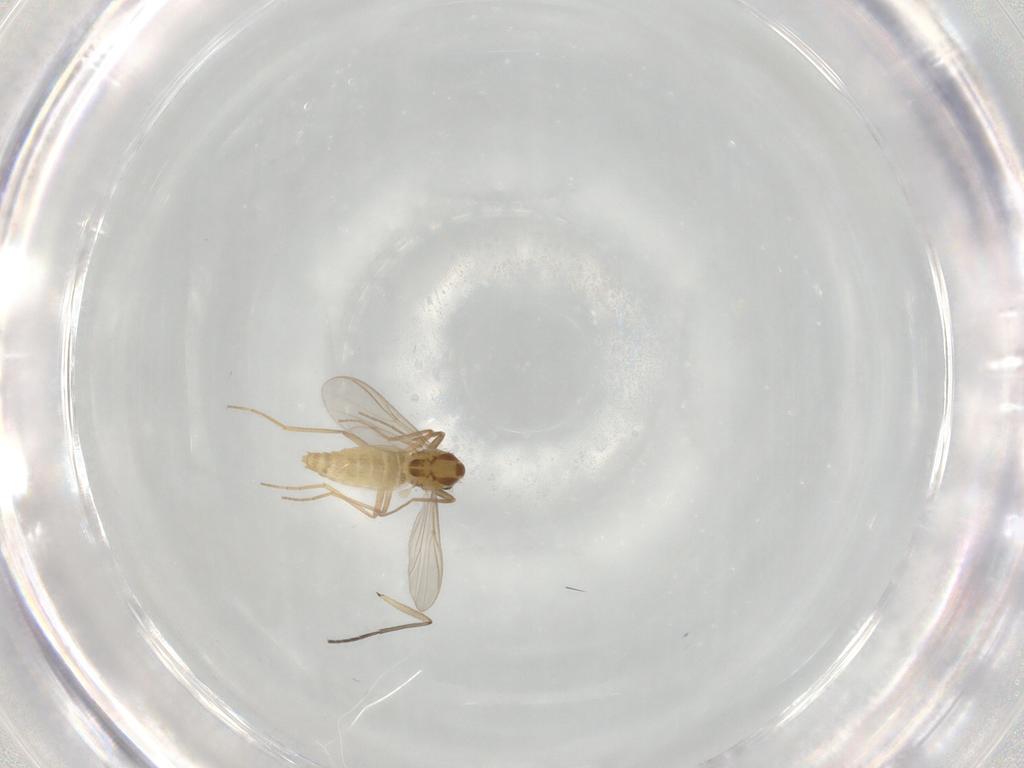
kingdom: Animalia
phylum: Arthropoda
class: Insecta
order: Diptera
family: Chironomidae
